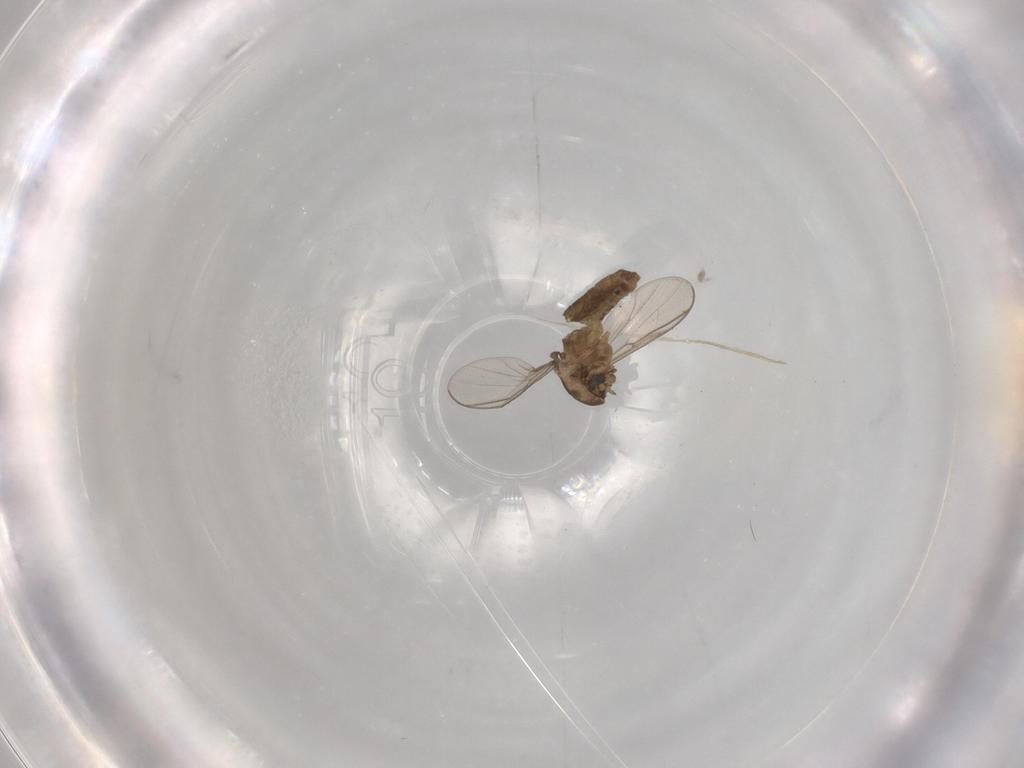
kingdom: Animalia
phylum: Arthropoda
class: Insecta
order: Diptera
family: Chironomidae
